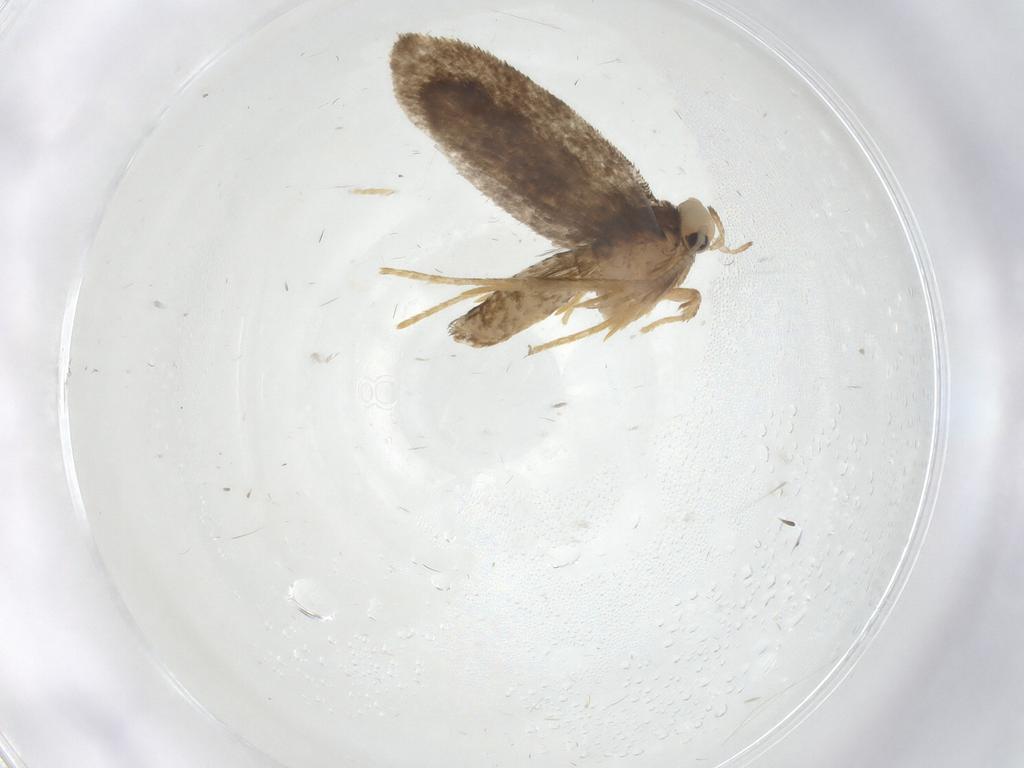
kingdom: Animalia
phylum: Arthropoda
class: Insecta
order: Lepidoptera
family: Psychidae
